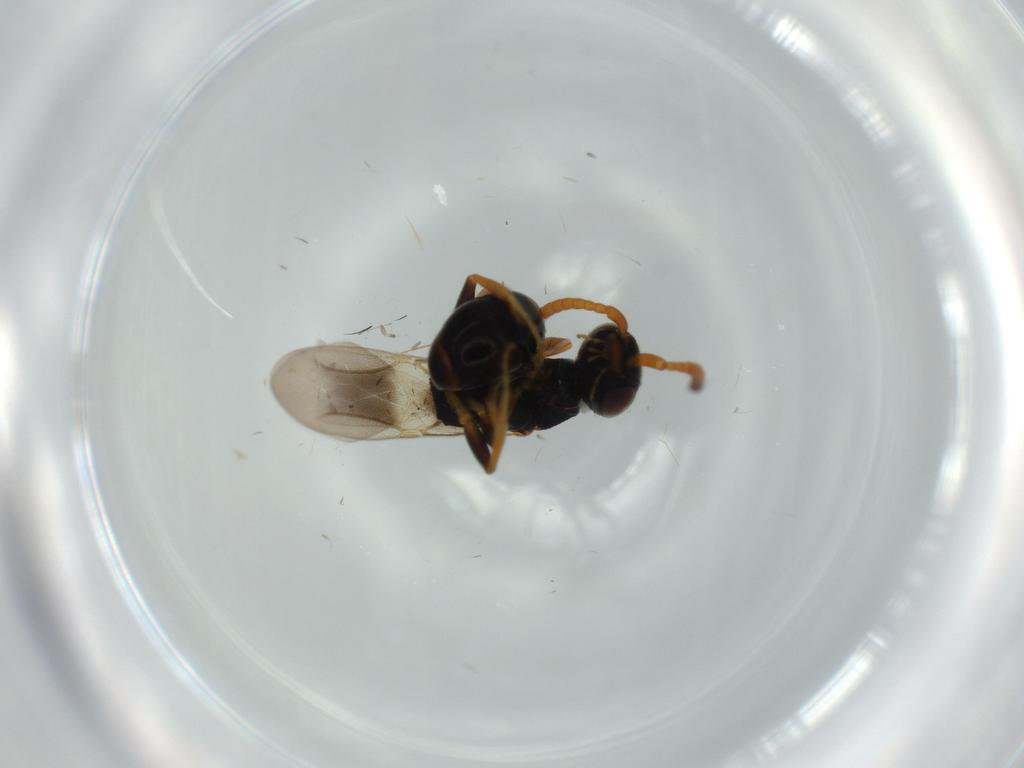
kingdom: Animalia
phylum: Arthropoda
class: Insecta
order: Hymenoptera
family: Bethylidae
